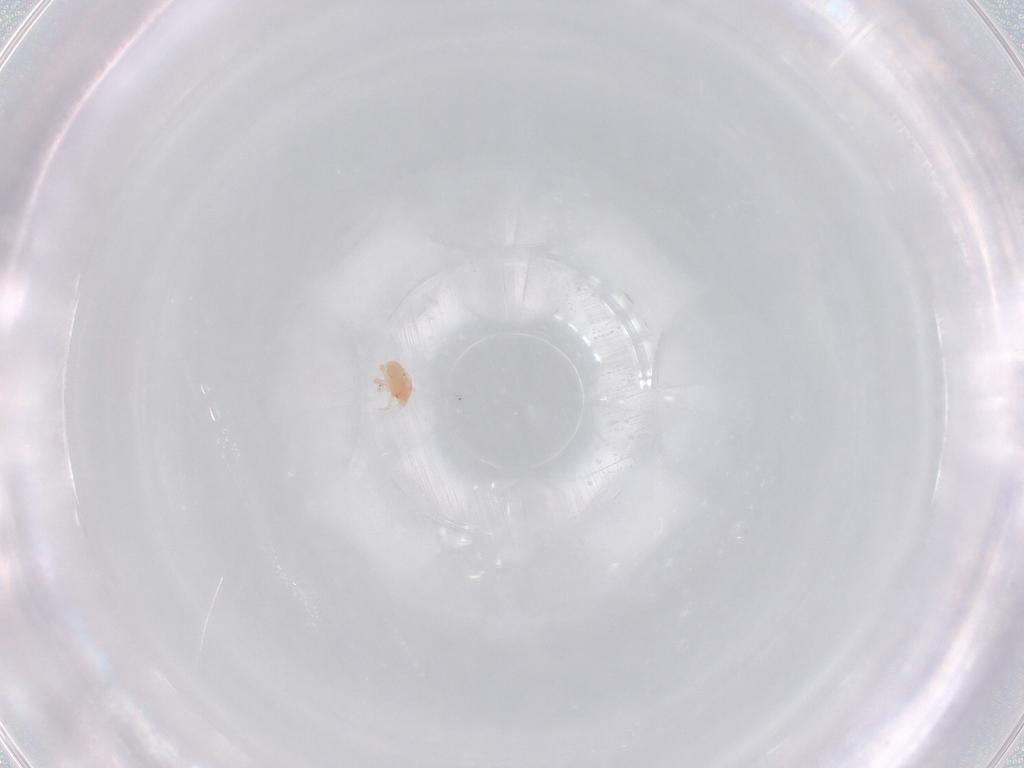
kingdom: Animalia
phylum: Arthropoda
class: Arachnida
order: Trombidiformes
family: Bdellidae
